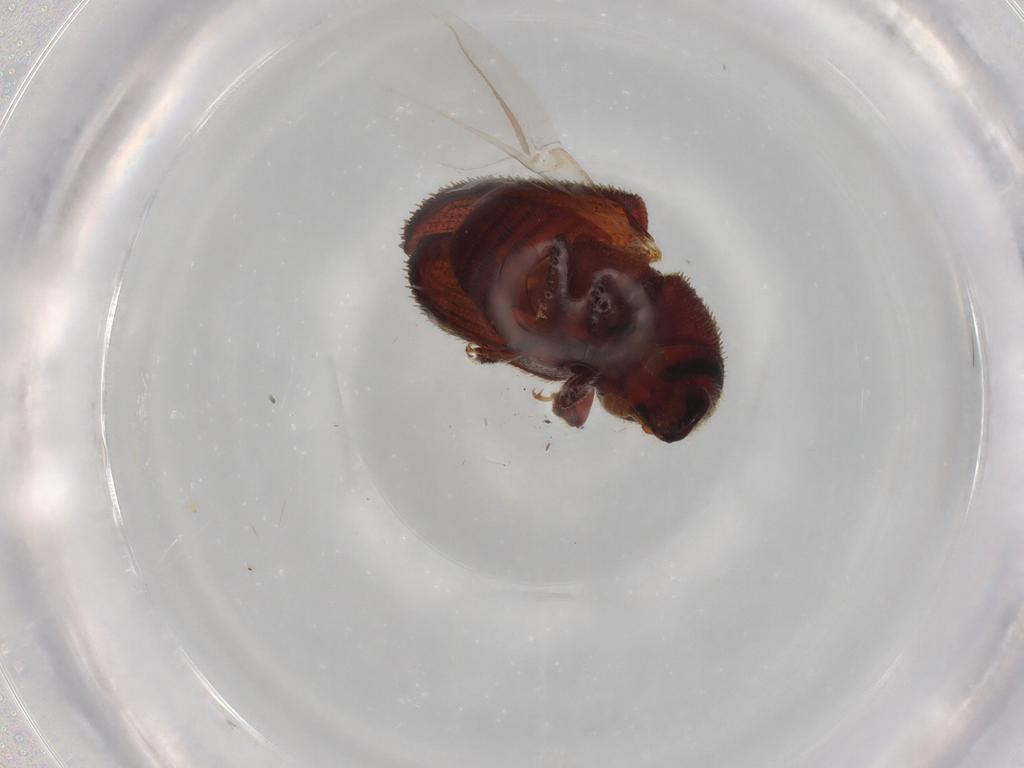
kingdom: Animalia
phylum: Arthropoda
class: Insecta
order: Coleoptera
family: Curculionidae
